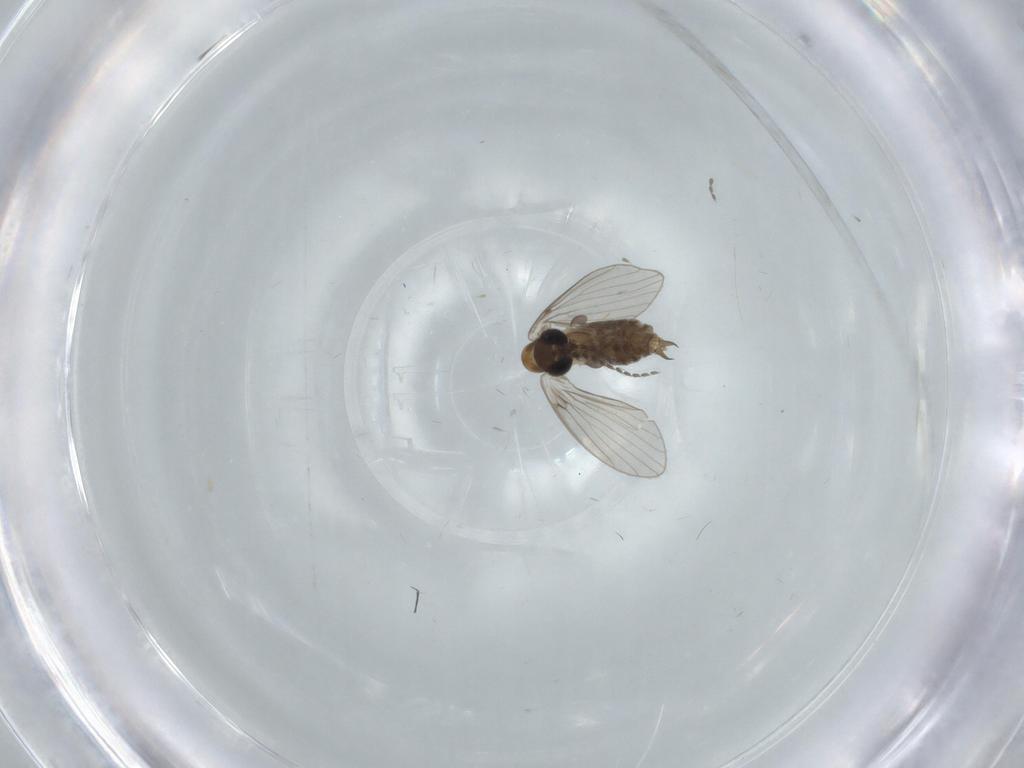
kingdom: Animalia
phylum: Arthropoda
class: Insecta
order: Diptera
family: Psychodidae
